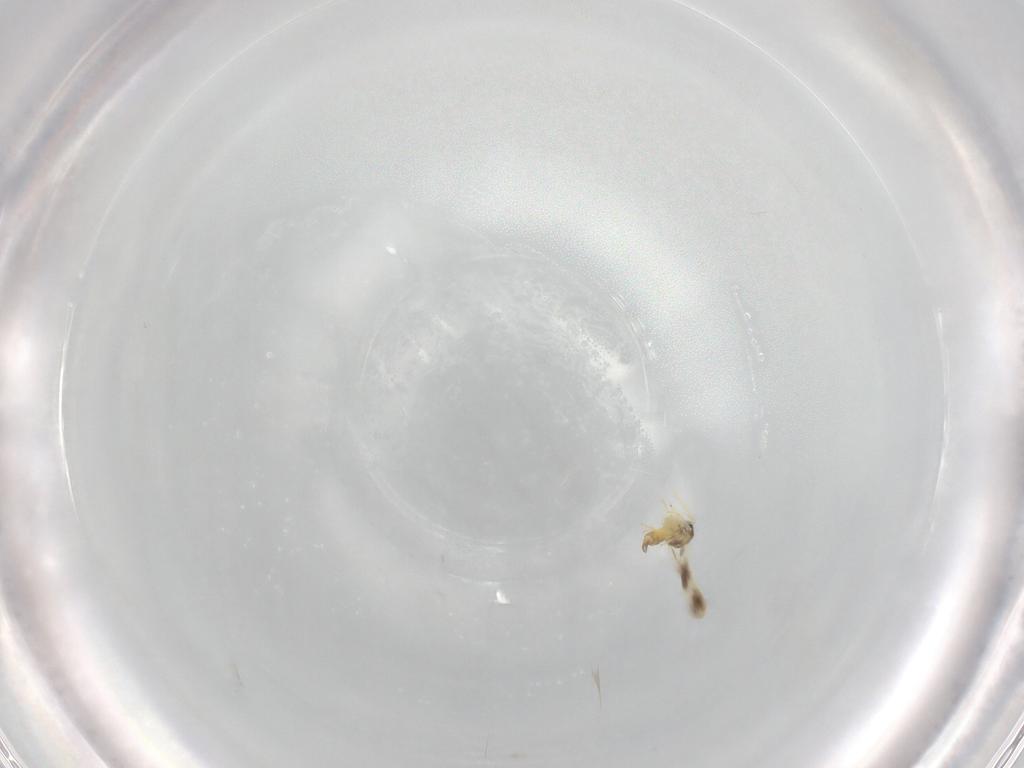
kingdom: Animalia
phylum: Arthropoda
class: Insecta
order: Hemiptera
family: Aleyrodidae
